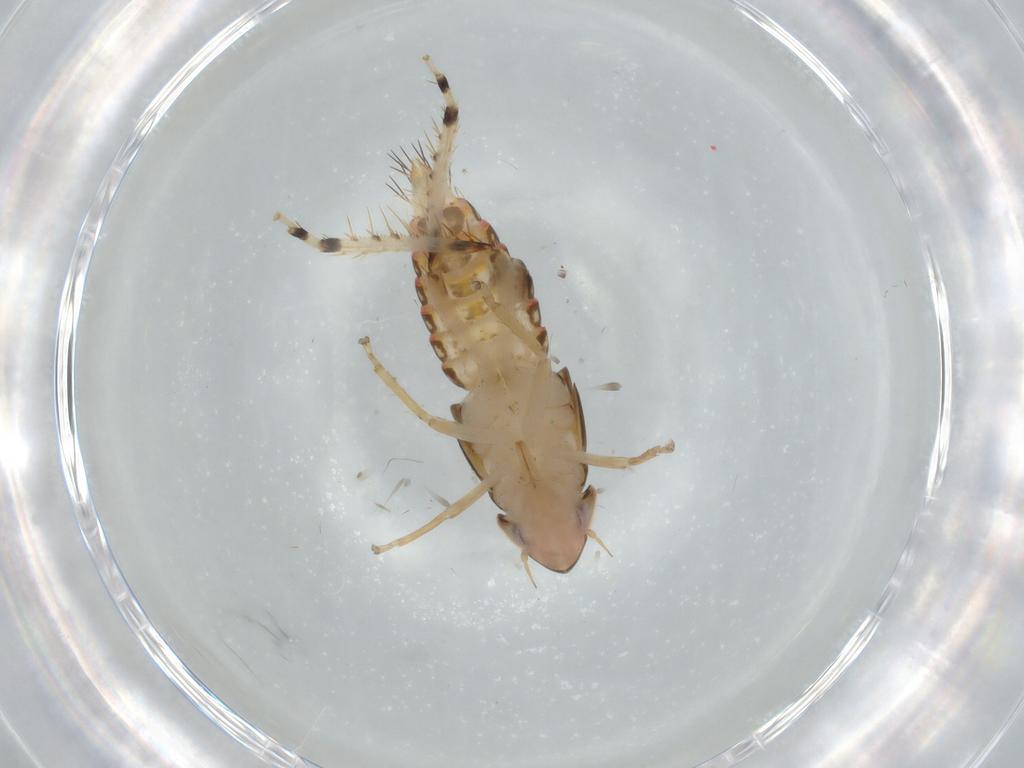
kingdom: Animalia
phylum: Arthropoda
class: Insecta
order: Hemiptera
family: Cicadellidae
